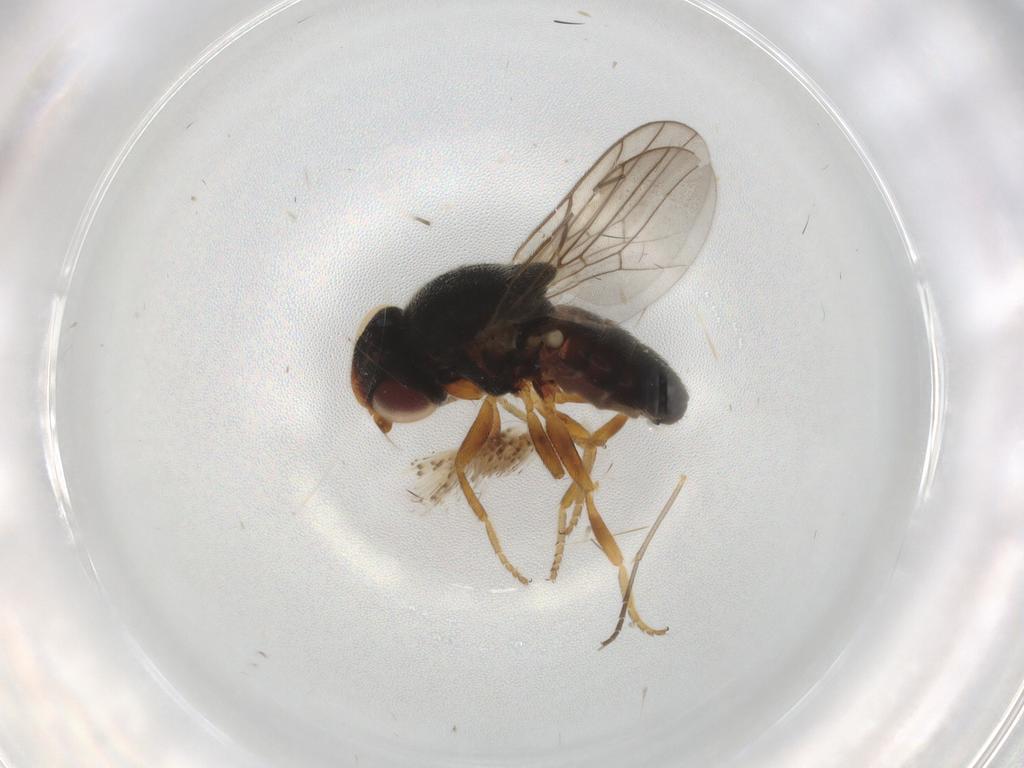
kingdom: Animalia
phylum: Arthropoda
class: Insecta
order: Diptera
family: Chloropidae
